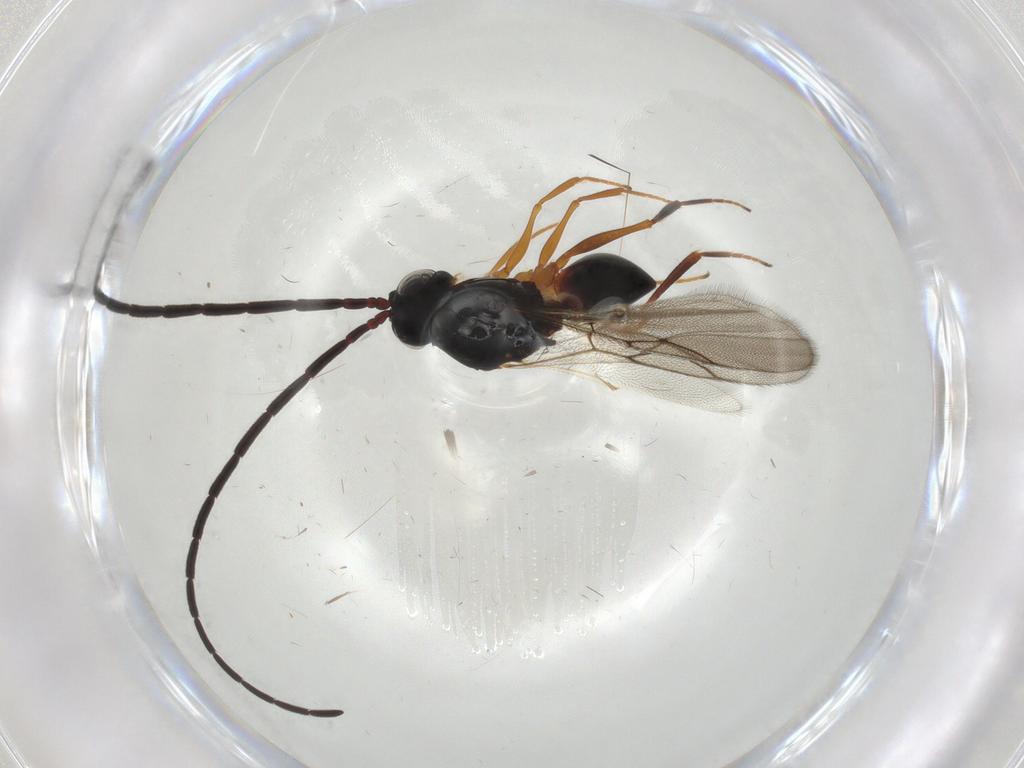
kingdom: Animalia
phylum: Arthropoda
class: Insecta
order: Hymenoptera
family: Figitidae
